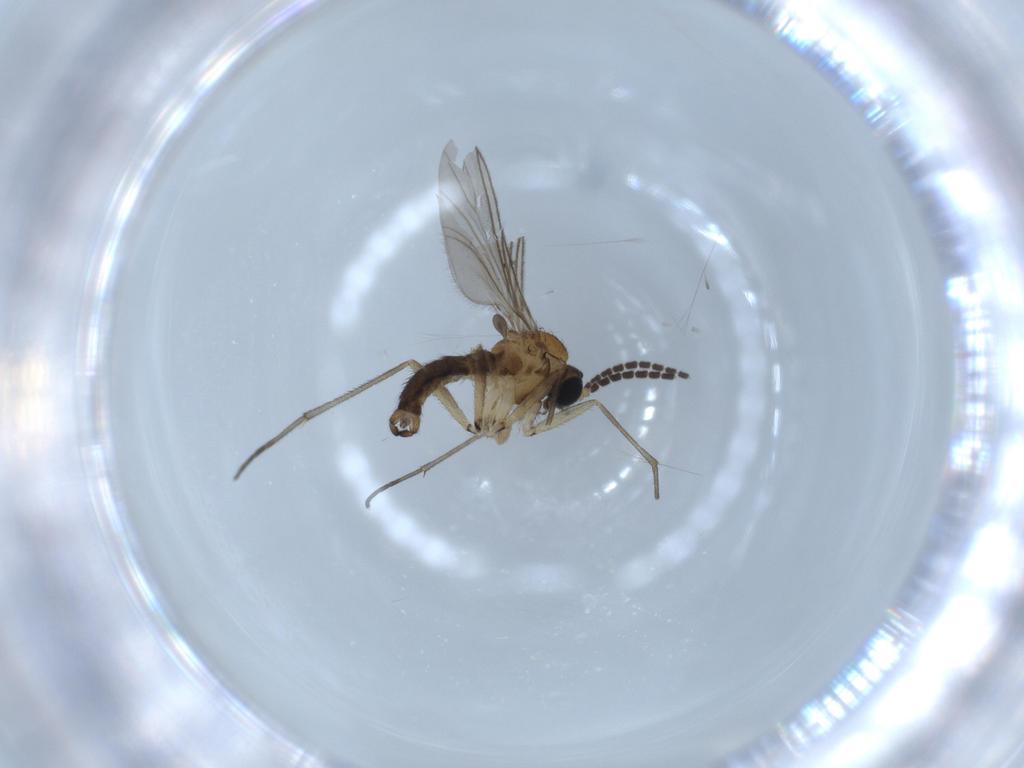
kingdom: Animalia
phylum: Arthropoda
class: Insecta
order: Diptera
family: Sciaridae
